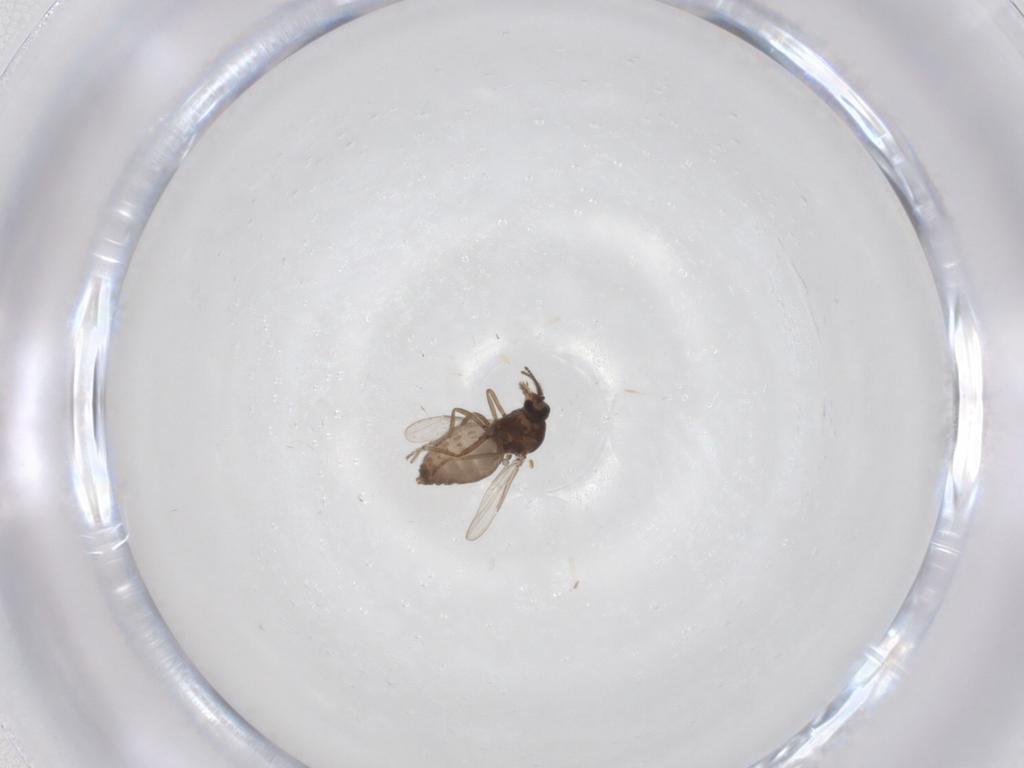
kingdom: Animalia
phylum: Arthropoda
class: Insecta
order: Diptera
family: Ceratopogonidae
